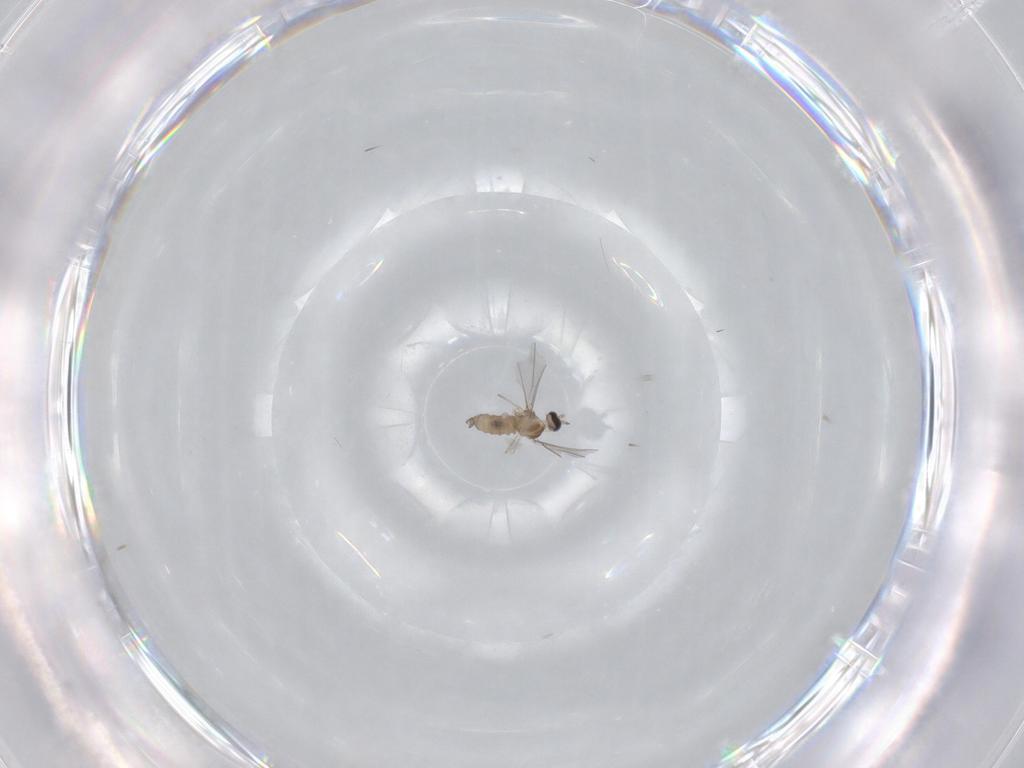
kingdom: Animalia
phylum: Arthropoda
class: Insecta
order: Diptera
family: Cecidomyiidae
